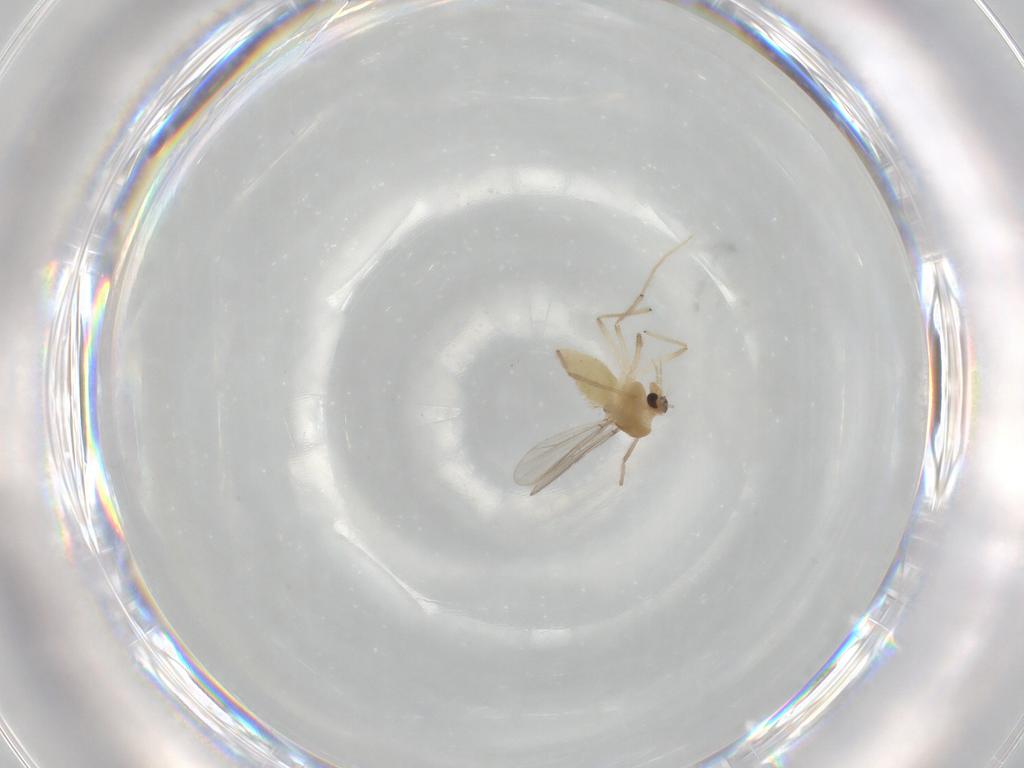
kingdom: Animalia
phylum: Arthropoda
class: Insecta
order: Diptera
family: Chironomidae
